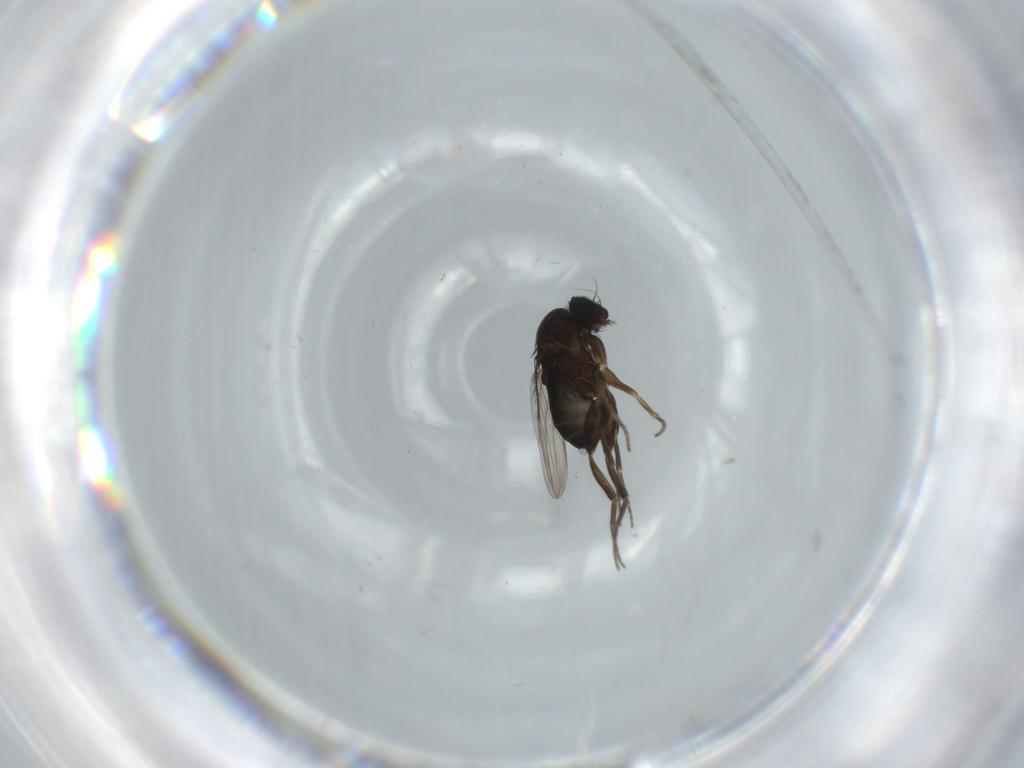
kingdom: Animalia
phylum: Arthropoda
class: Insecta
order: Diptera
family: Phoridae
